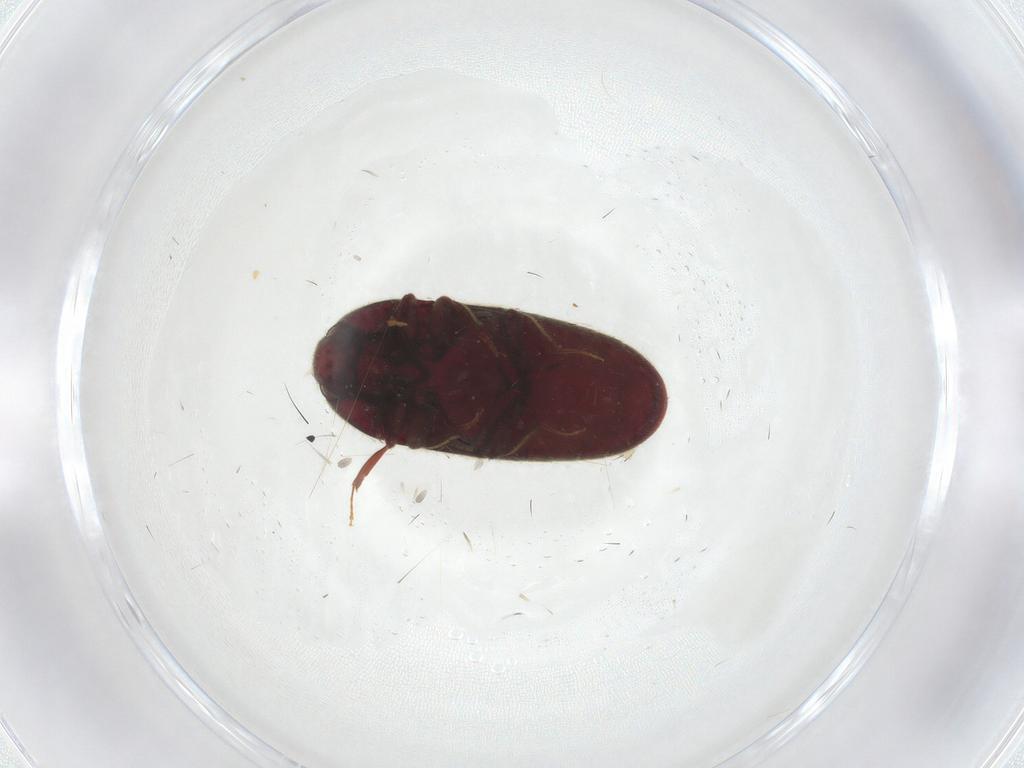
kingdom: Animalia
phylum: Arthropoda
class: Insecta
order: Coleoptera
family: Throscidae
